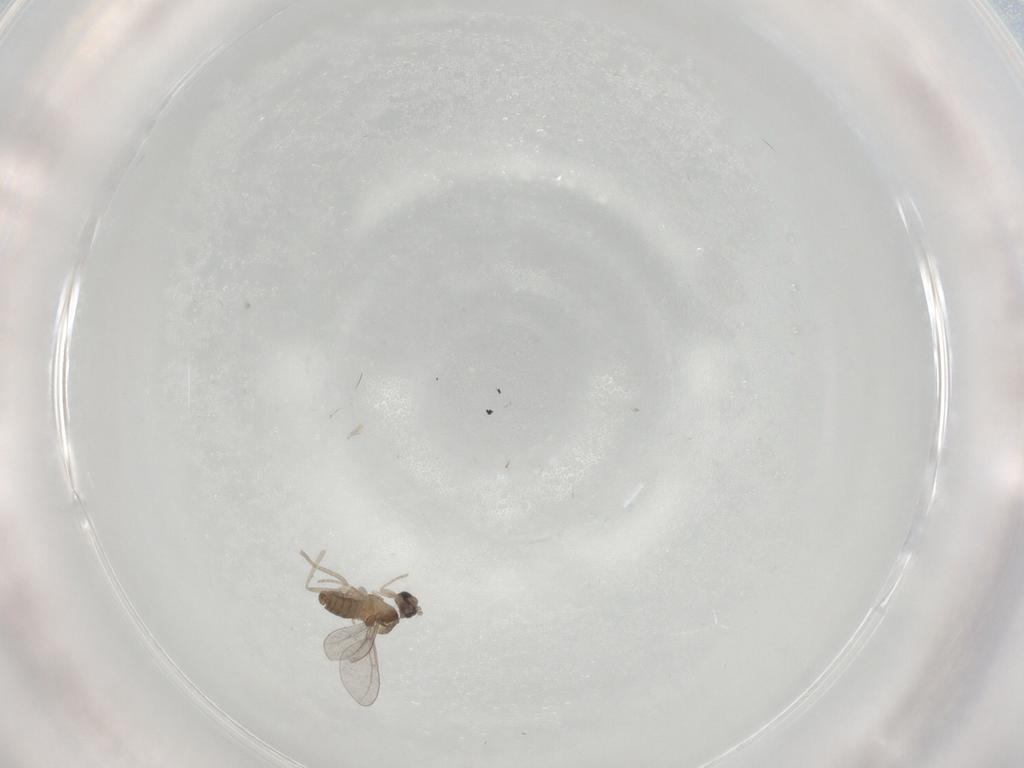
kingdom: Animalia
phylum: Arthropoda
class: Insecta
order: Diptera
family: Cecidomyiidae
